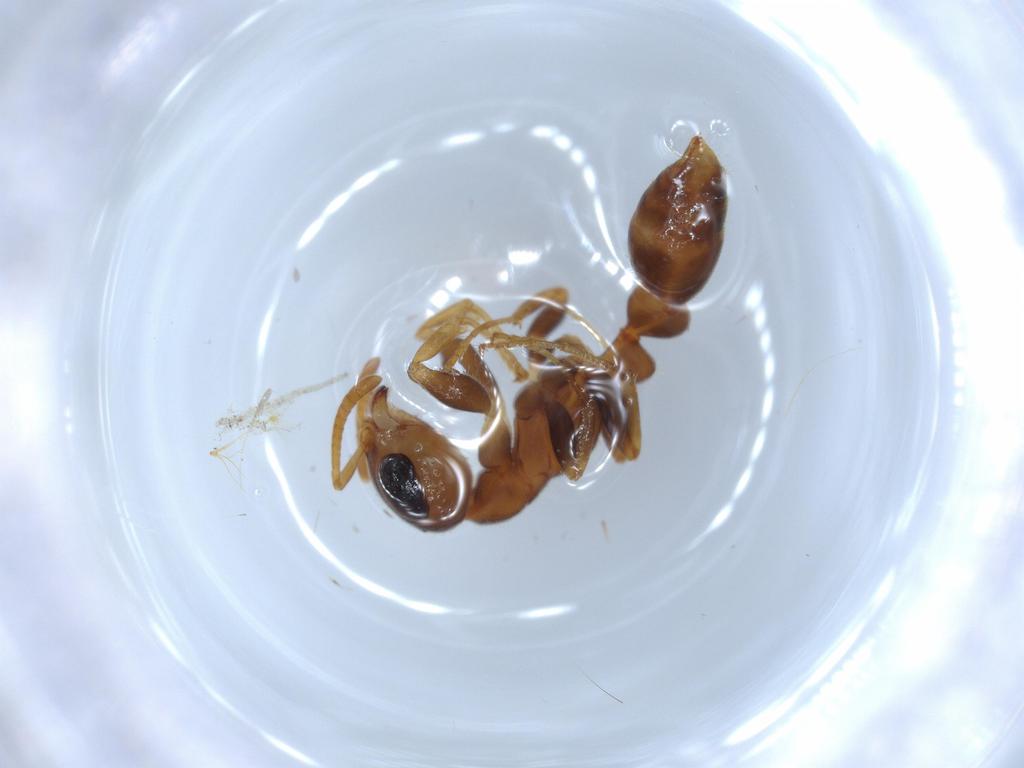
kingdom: Animalia
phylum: Arthropoda
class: Insecta
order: Hymenoptera
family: Formicidae
